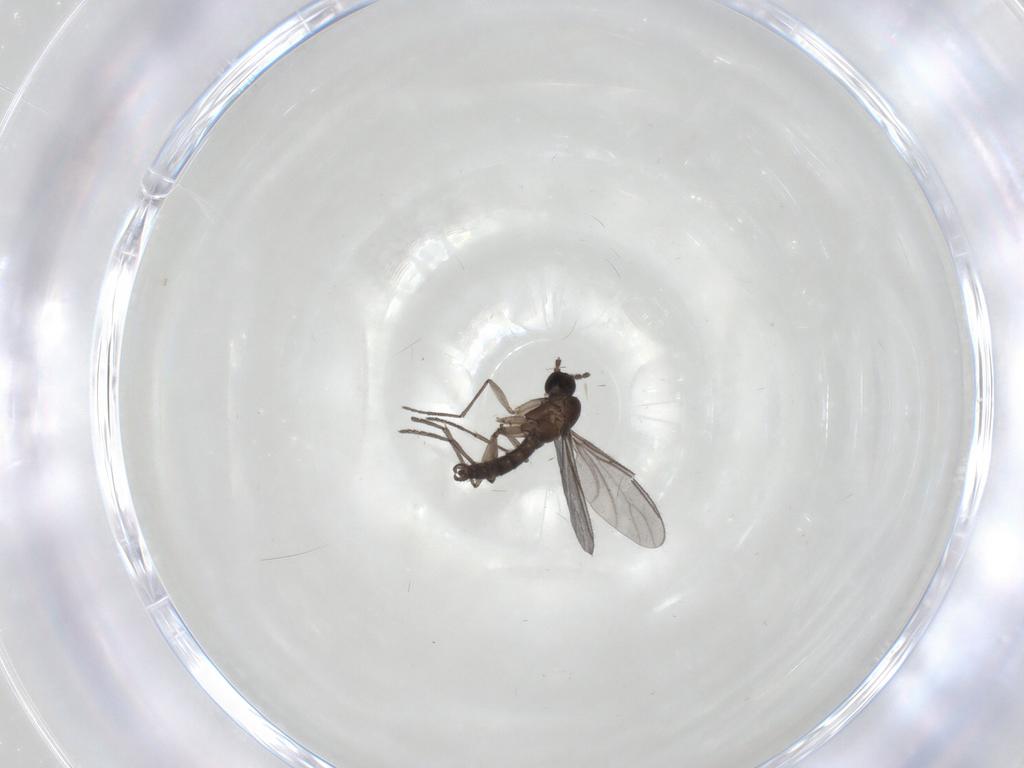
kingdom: Animalia
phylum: Arthropoda
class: Insecta
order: Diptera
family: Sciaridae
